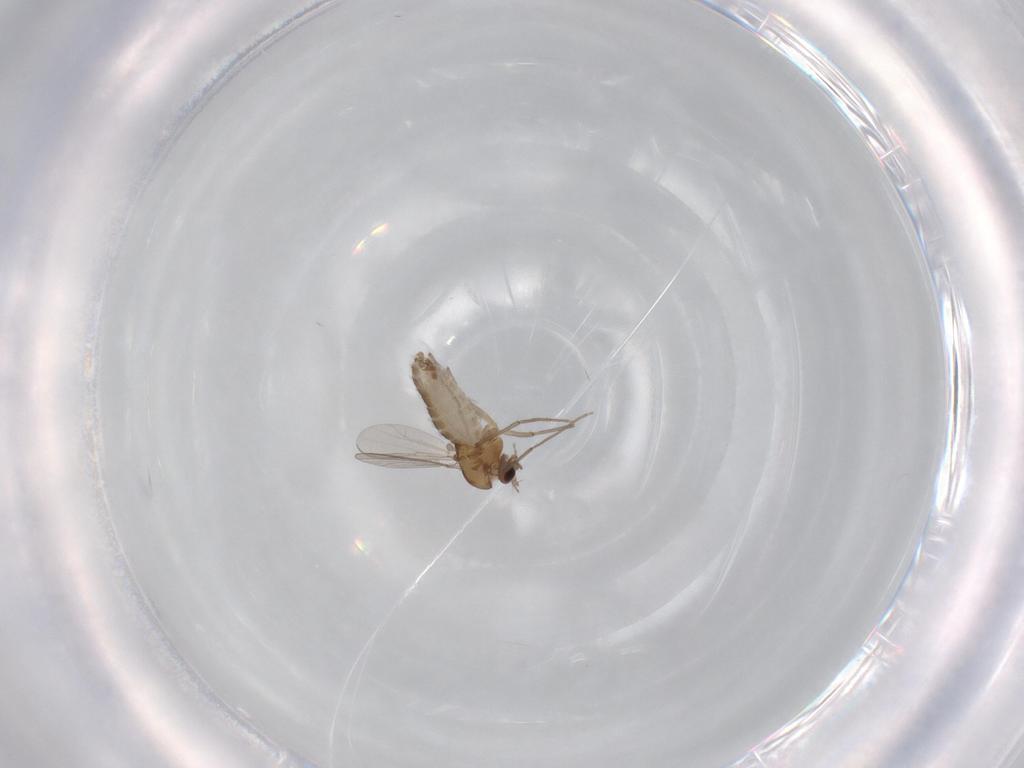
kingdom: Animalia
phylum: Arthropoda
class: Insecta
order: Diptera
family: Chironomidae
